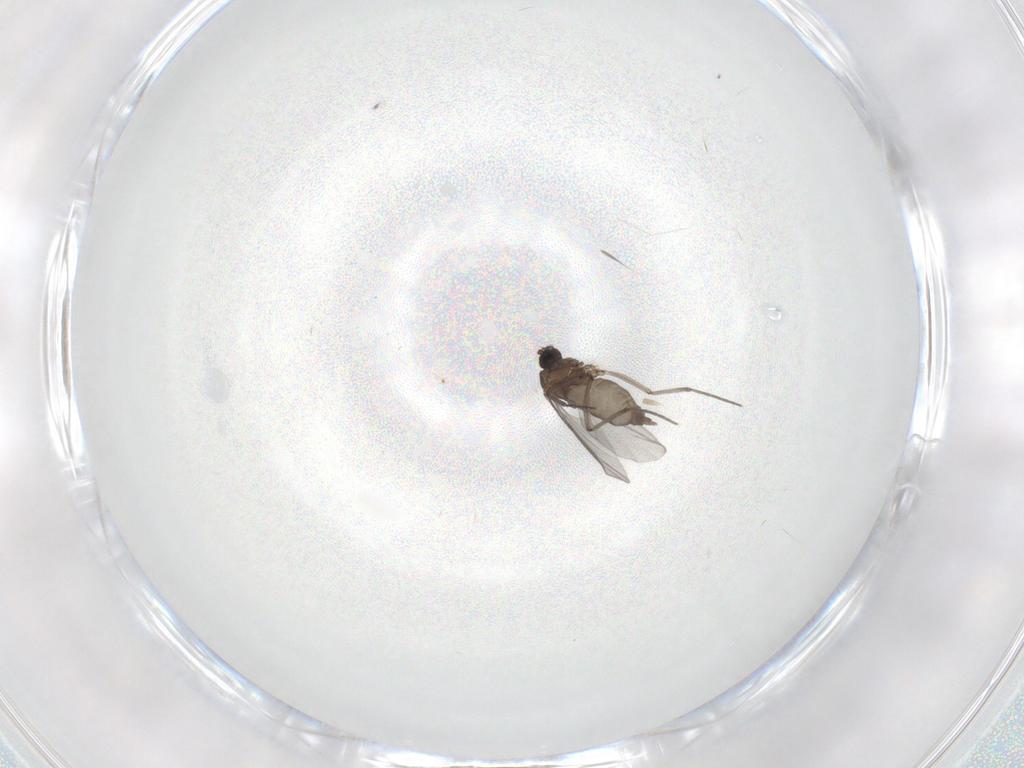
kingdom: Animalia
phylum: Arthropoda
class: Insecta
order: Diptera
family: Sciaridae
